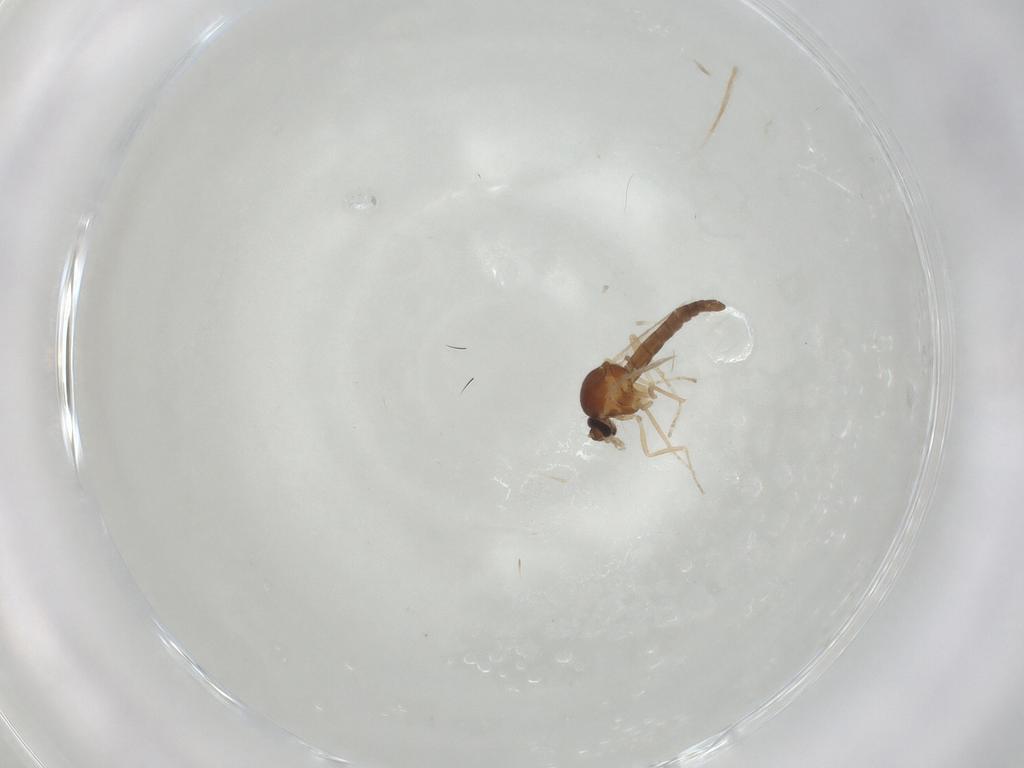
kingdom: Animalia
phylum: Arthropoda
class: Insecta
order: Diptera
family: Ceratopogonidae
